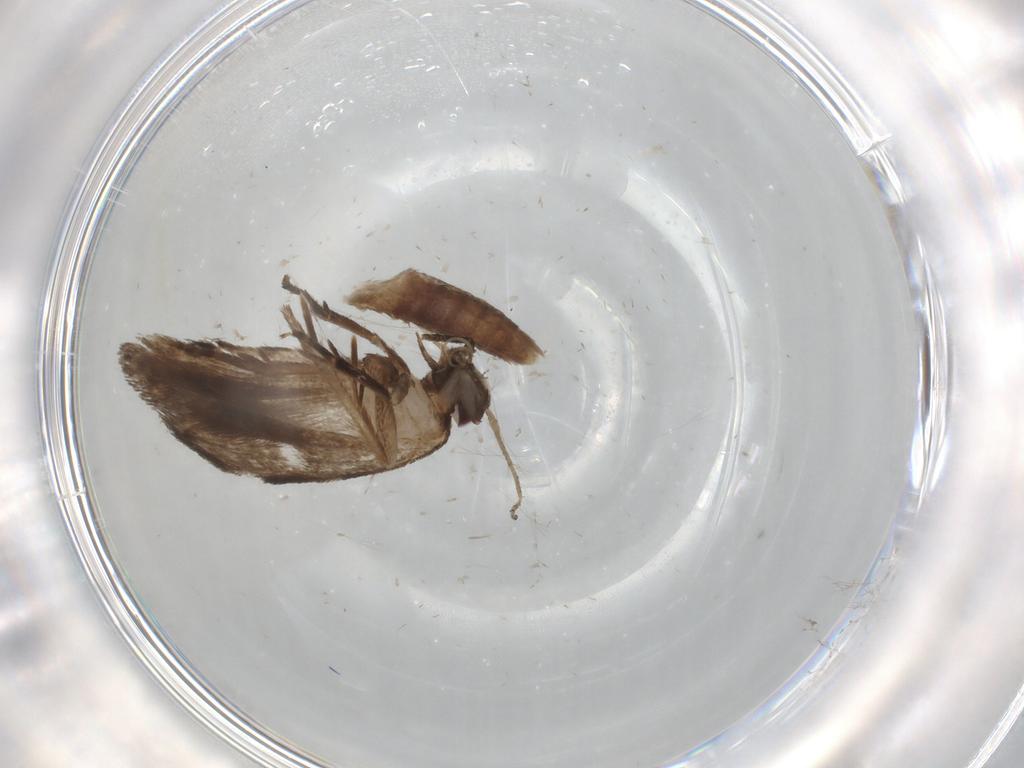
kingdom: Animalia
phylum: Arthropoda
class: Insecta
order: Lepidoptera
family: Gelechiidae
